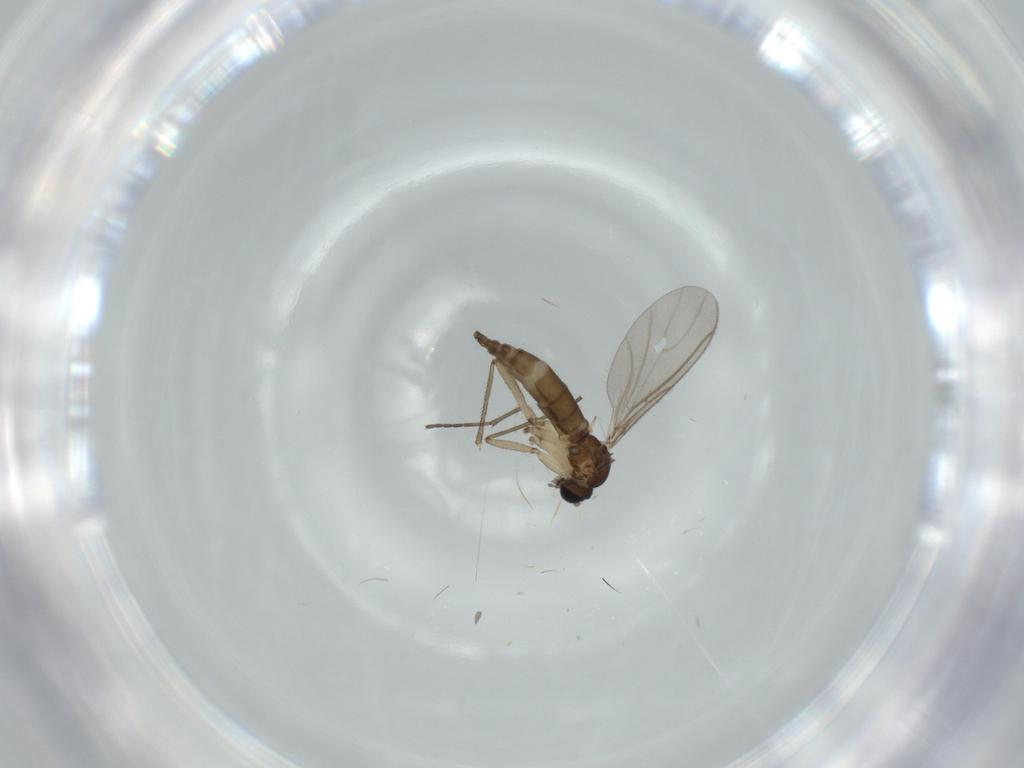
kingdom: Animalia
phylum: Arthropoda
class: Insecta
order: Diptera
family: Sciaridae
